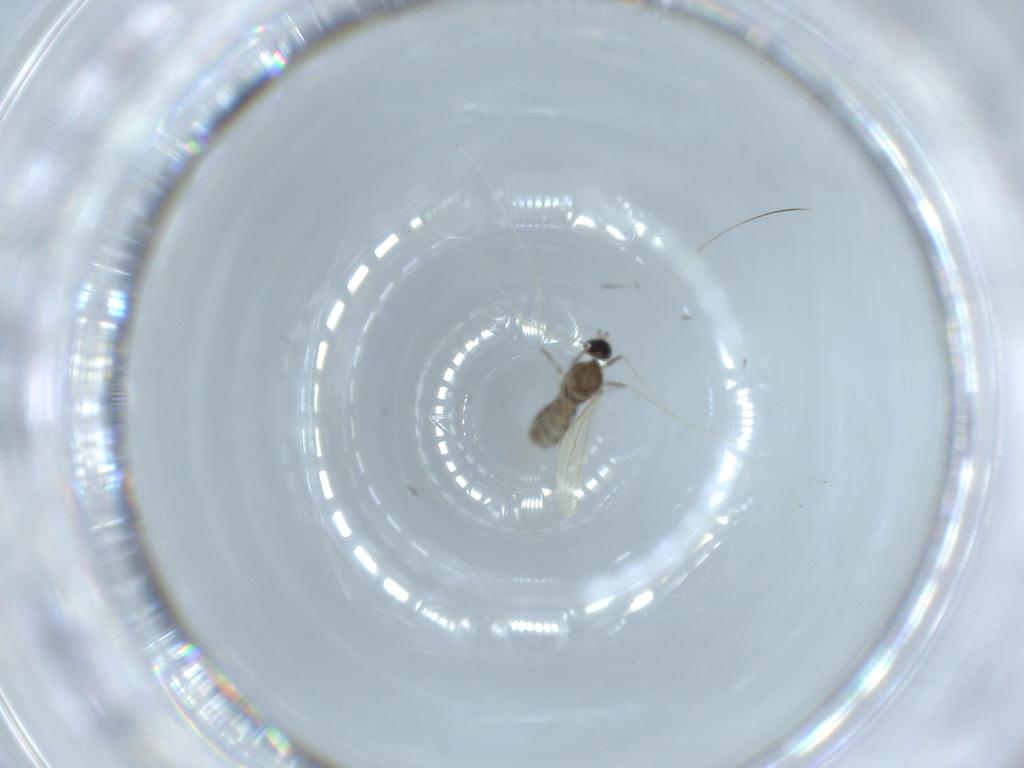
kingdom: Animalia
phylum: Arthropoda
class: Insecta
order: Diptera
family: Cecidomyiidae
